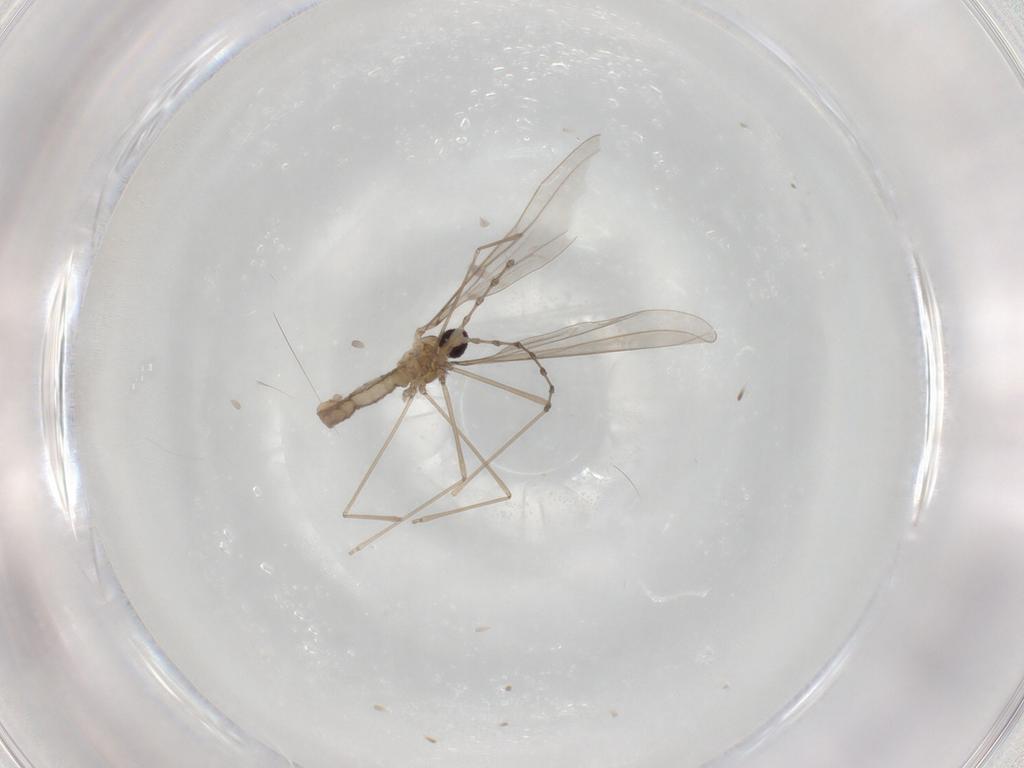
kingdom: Animalia
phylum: Arthropoda
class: Insecta
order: Diptera
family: Cecidomyiidae
